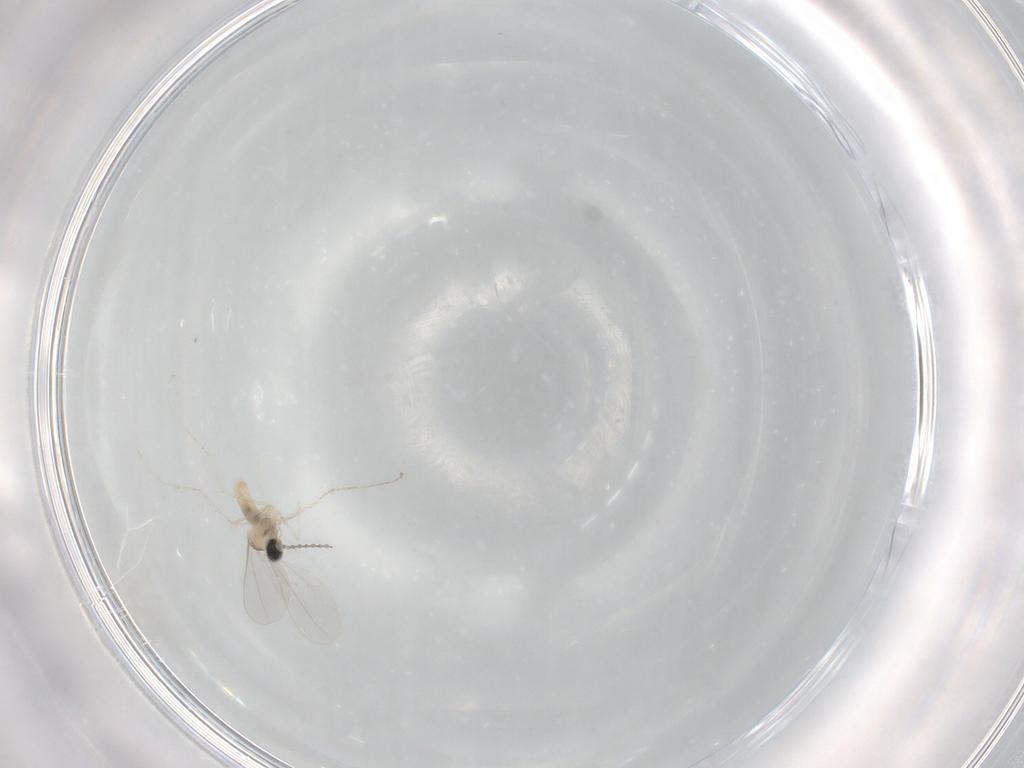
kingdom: Animalia
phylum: Arthropoda
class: Insecta
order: Diptera
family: Cecidomyiidae
